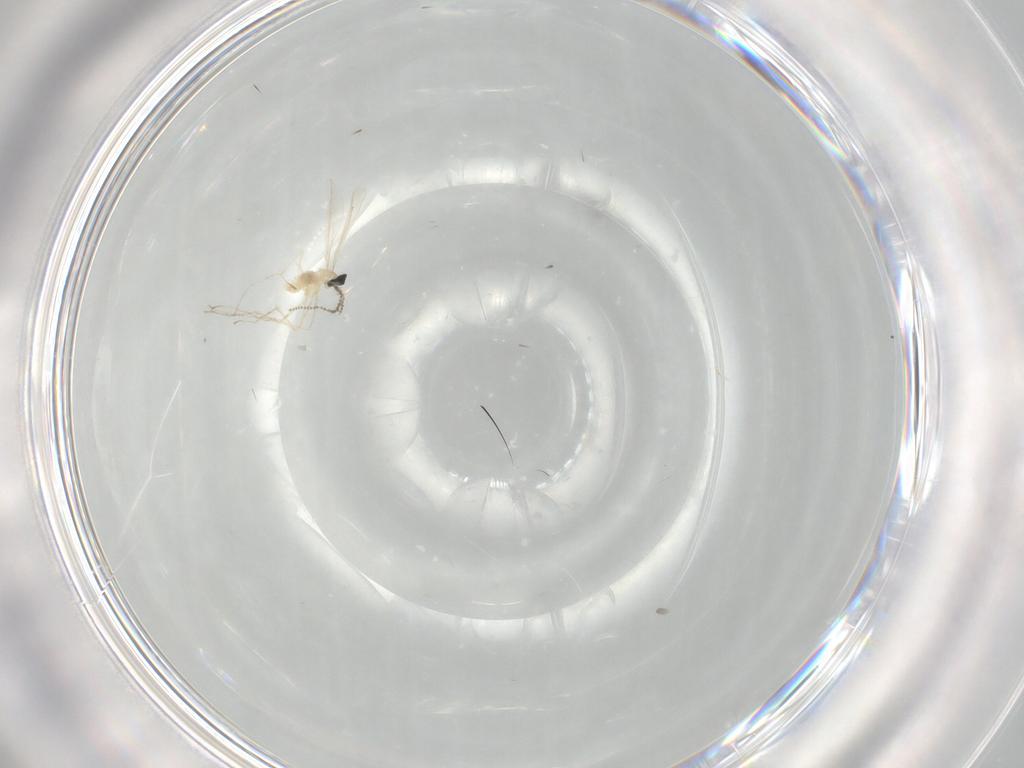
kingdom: Animalia
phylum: Arthropoda
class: Insecta
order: Diptera
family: Cecidomyiidae
